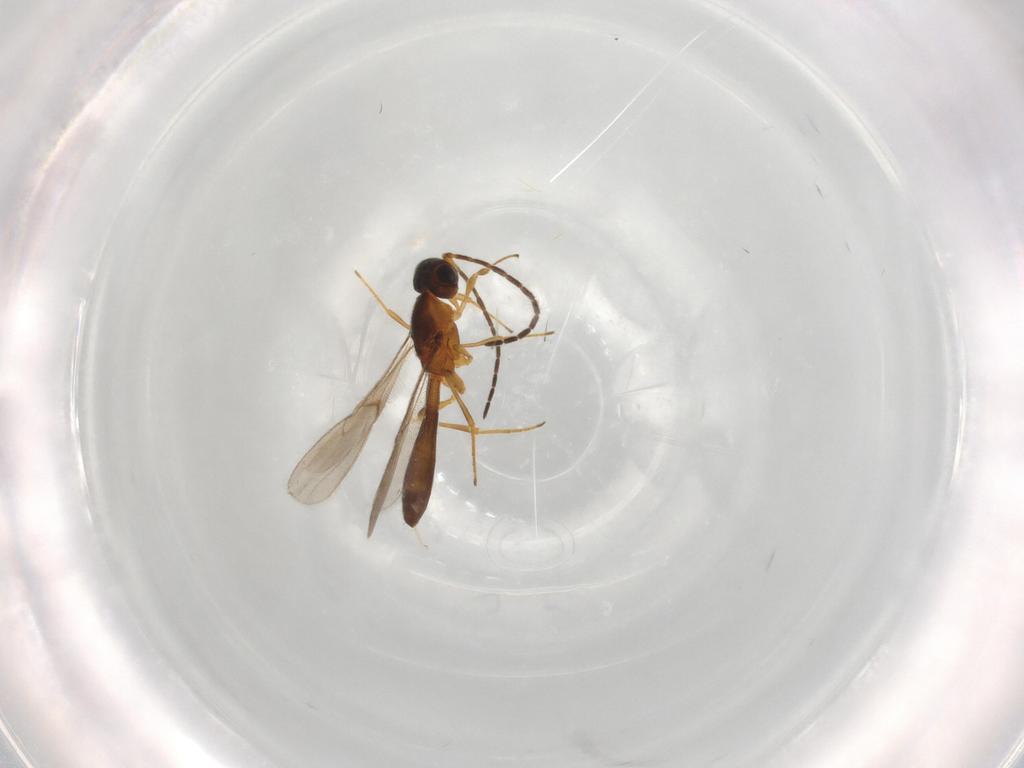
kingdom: Animalia
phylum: Arthropoda
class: Insecta
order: Hymenoptera
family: Scelionidae
